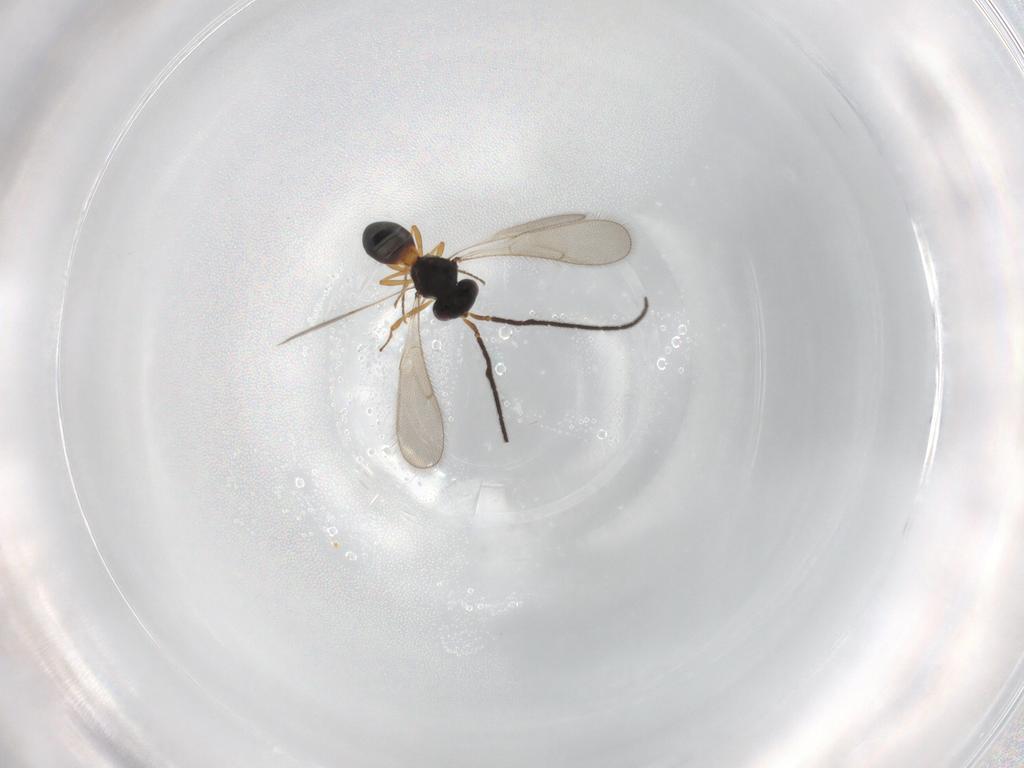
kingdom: Animalia
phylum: Arthropoda
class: Insecta
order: Hymenoptera
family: Scelionidae
